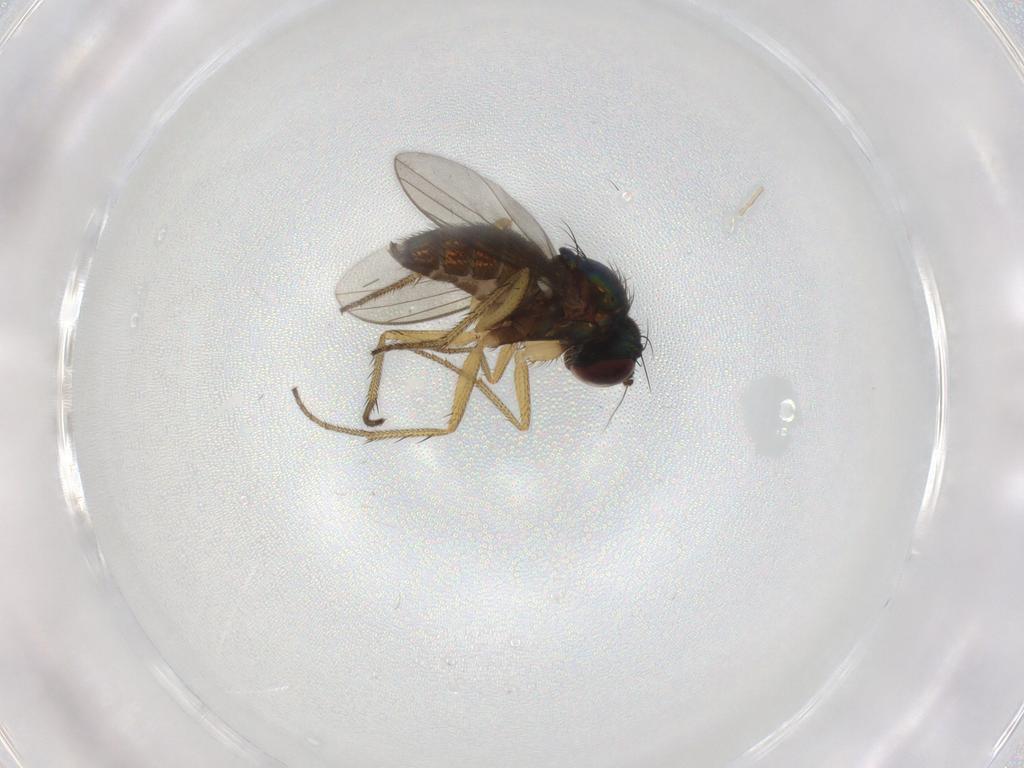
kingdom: Animalia
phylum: Arthropoda
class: Insecta
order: Diptera
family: Dolichopodidae
